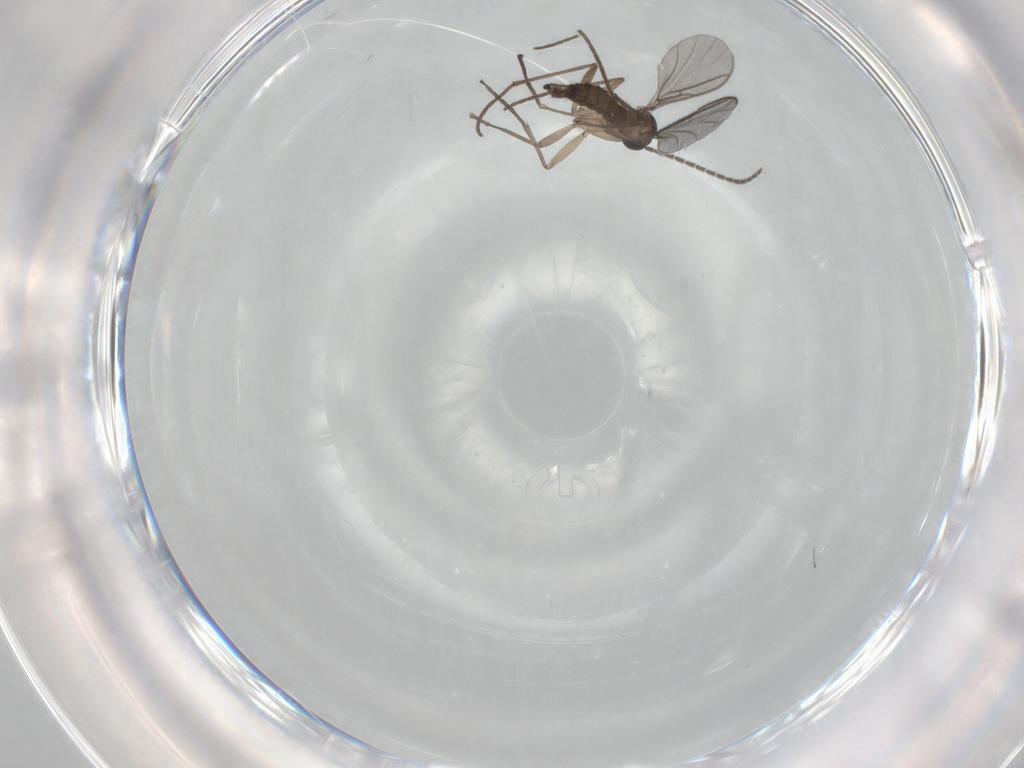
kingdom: Animalia
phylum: Arthropoda
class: Insecta
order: Diptera
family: Sciaridae
